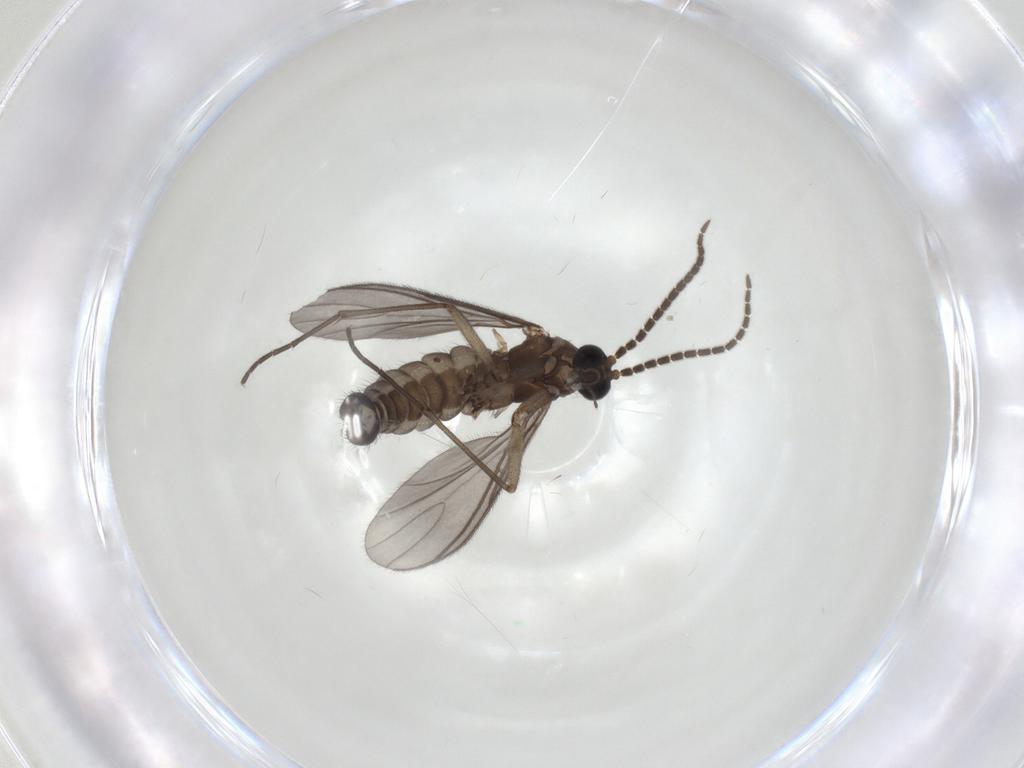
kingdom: Animalia
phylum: Arthropoda
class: Insecta
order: Diptera
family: Sciaridae
